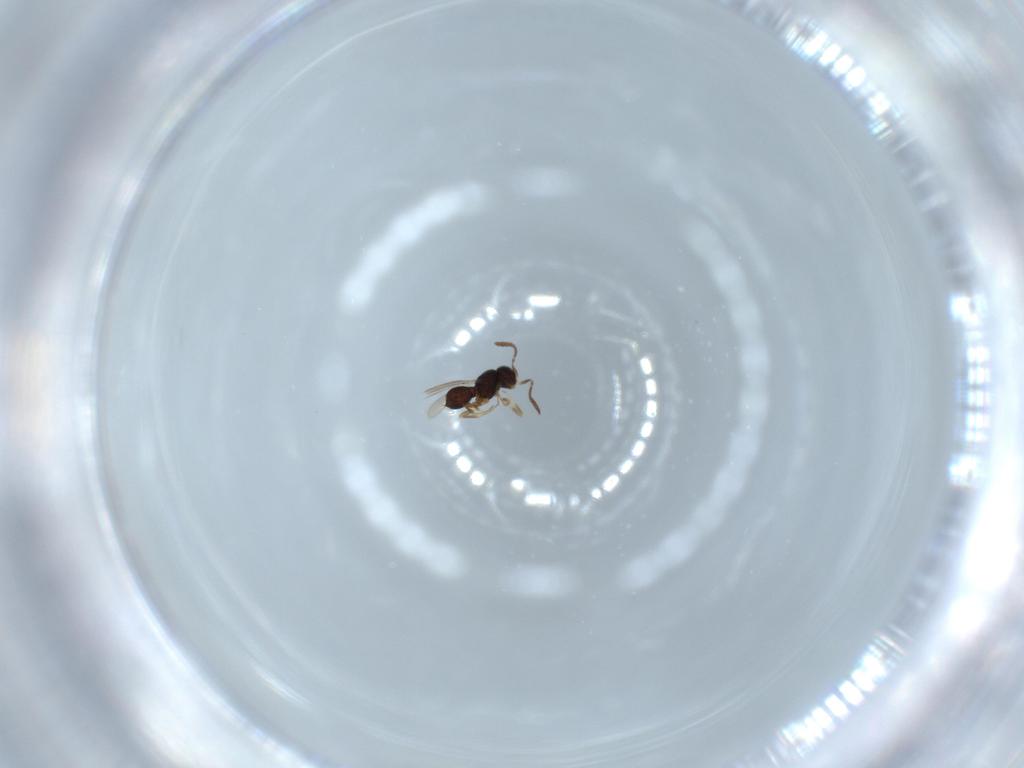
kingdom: Animalia
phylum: Arthropoda
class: Insecta
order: Hymenoptera
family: Scelionidae
